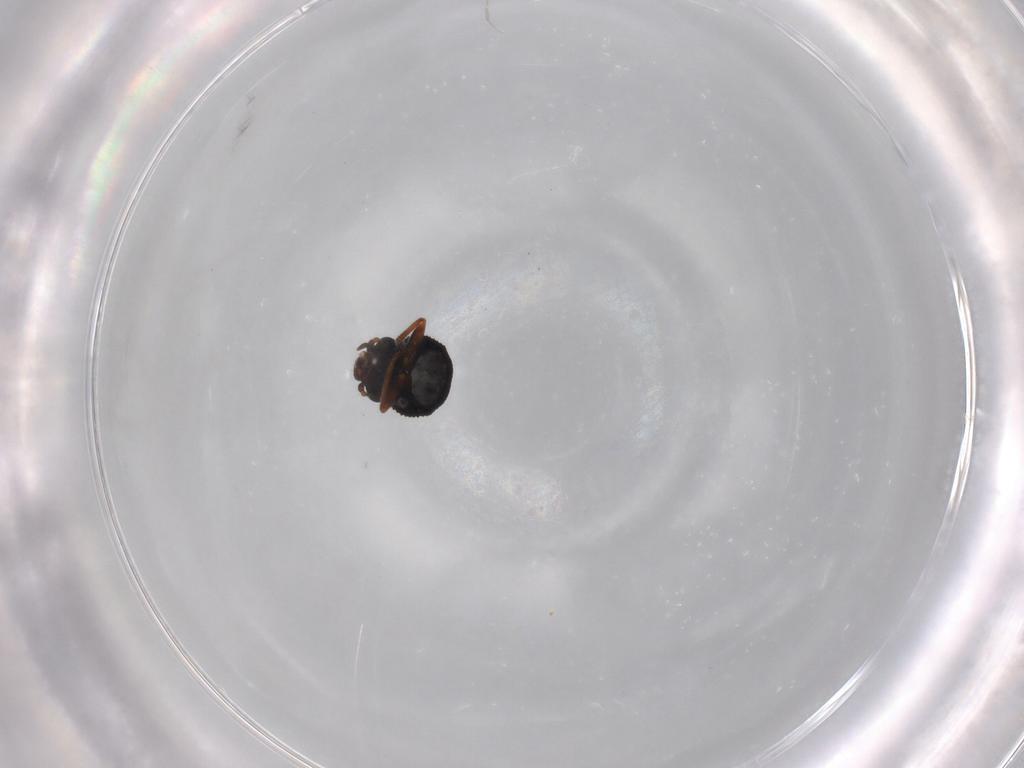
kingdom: Animalia
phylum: Arthropoda
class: Insecta
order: Coleoptera
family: Melyridae
